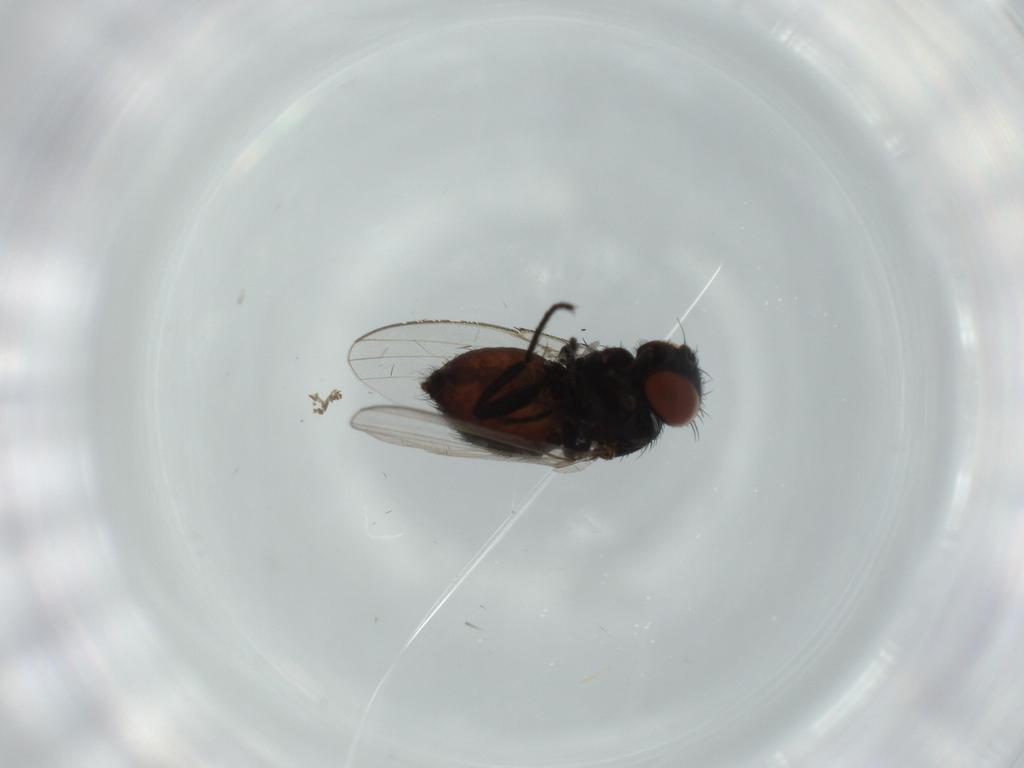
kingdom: Animalia
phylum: Arthropoda
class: Insecta
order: Diptera
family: Milichiidae
